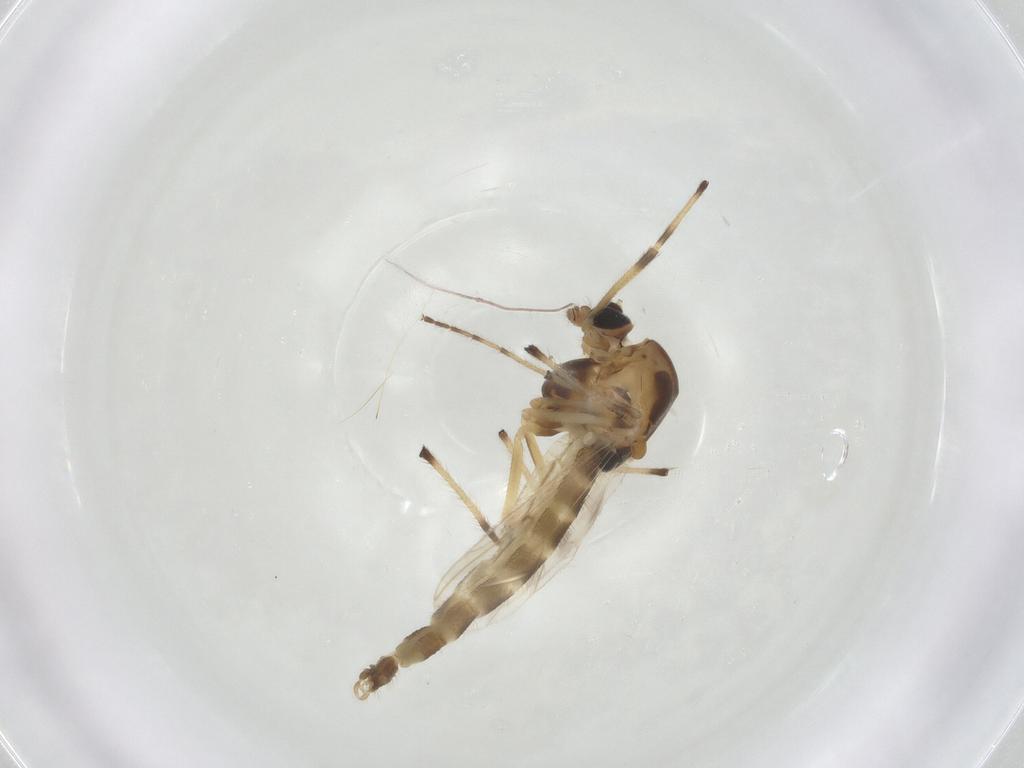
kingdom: Animalia
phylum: Arthropoda
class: Insecta
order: Diptera
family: Chironomidae
